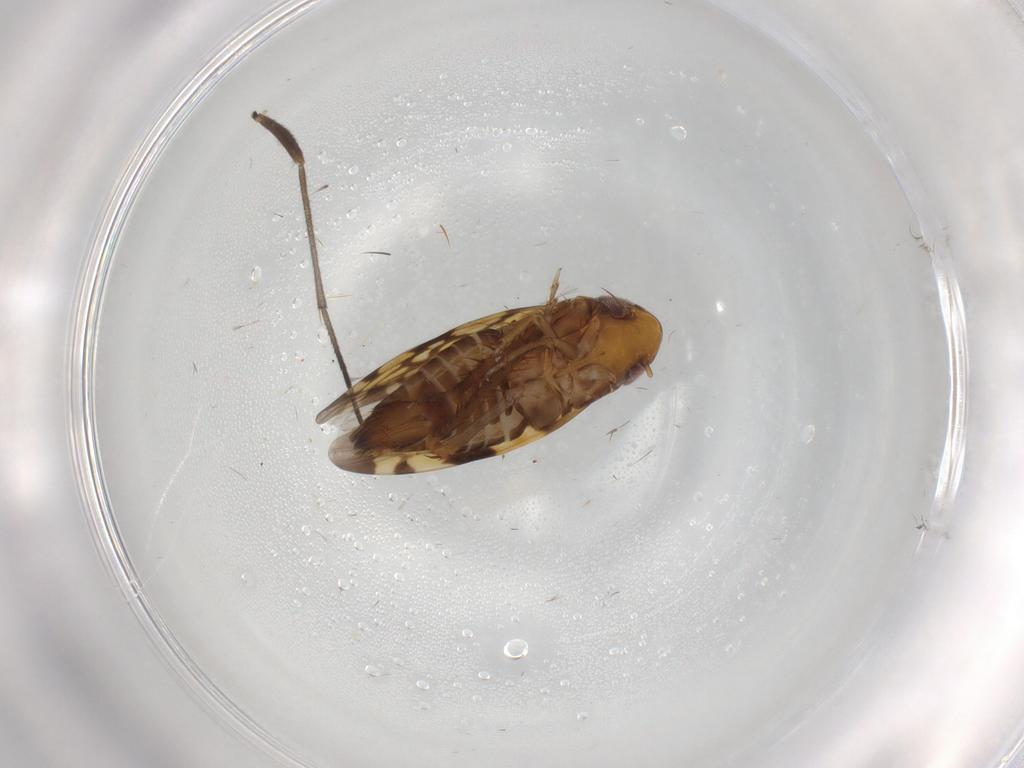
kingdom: Animalia
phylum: Arthropoda
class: Insecta
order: Hemiptera
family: Cicadellidae
